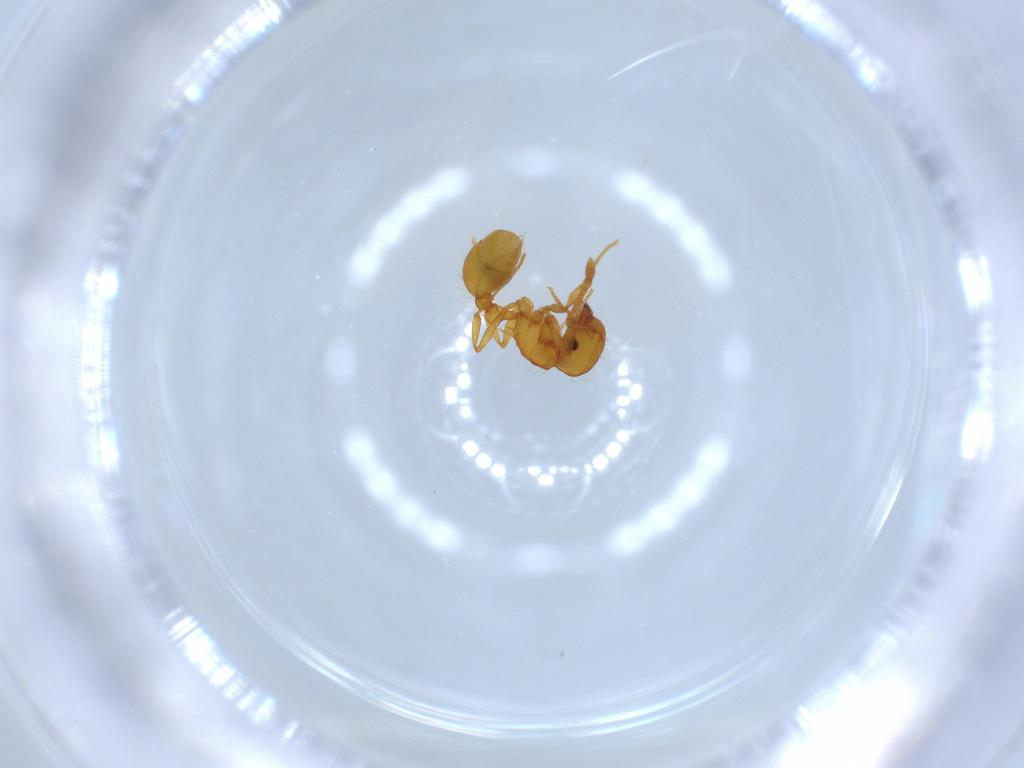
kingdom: Animalia
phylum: Arthropoda
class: Insecta
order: Hymenoptera
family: Formicidae
